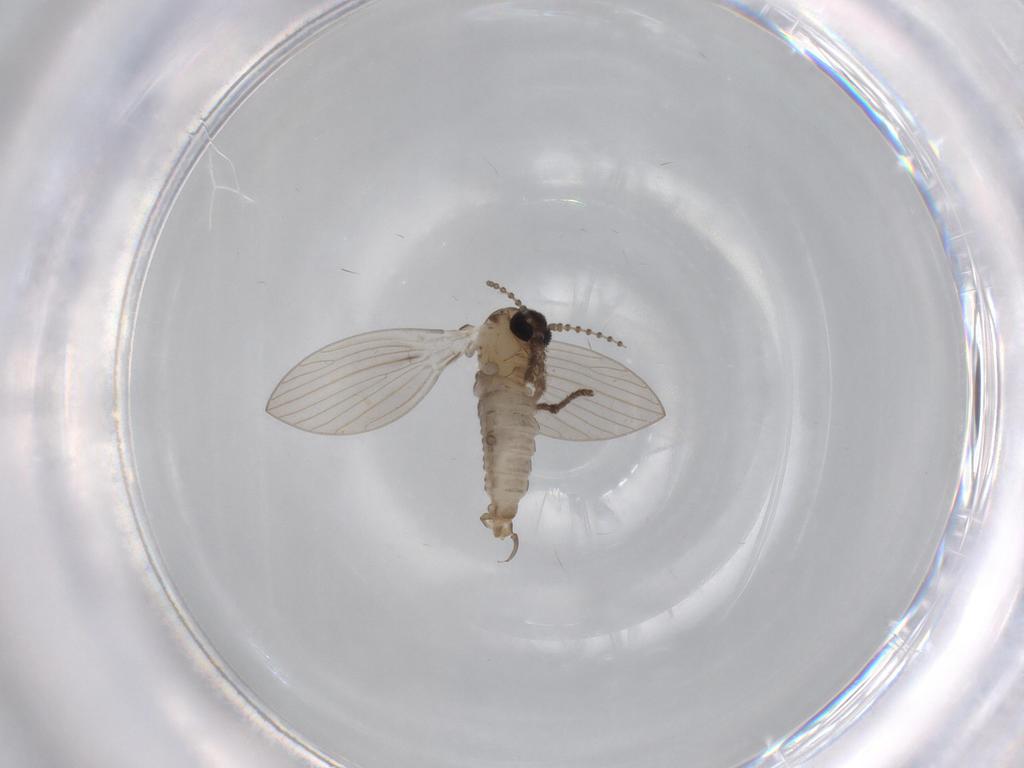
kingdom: Animalia
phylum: Arthropoda
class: Insecta
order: Diptera
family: Psychodidae
